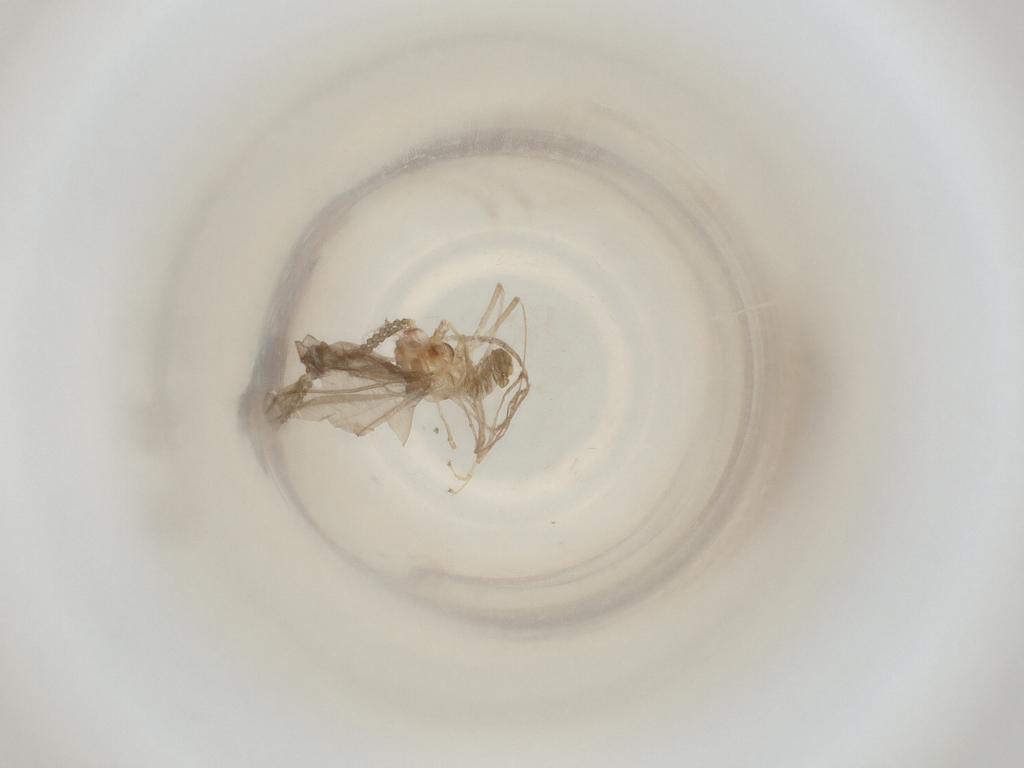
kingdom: Animalia
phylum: Arthropoda
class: Insecta
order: Diptera
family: Cecidomyiidae
